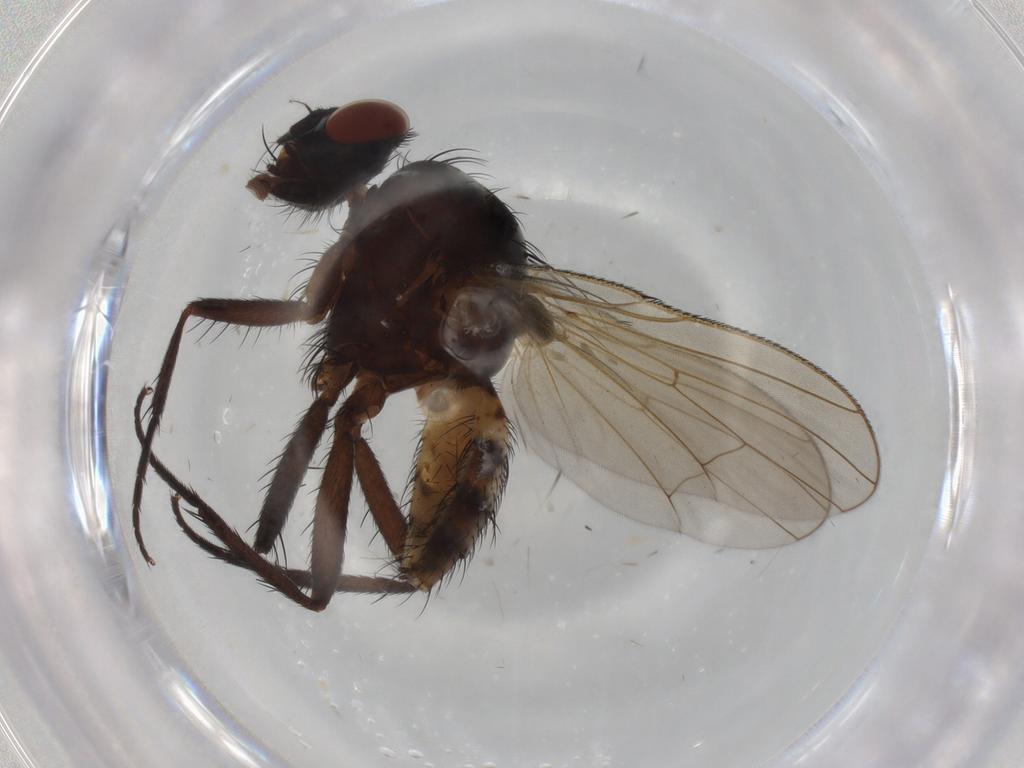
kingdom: Animalia
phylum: Arthropoda
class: Insecta
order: Diptera
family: Anthomyiidae
